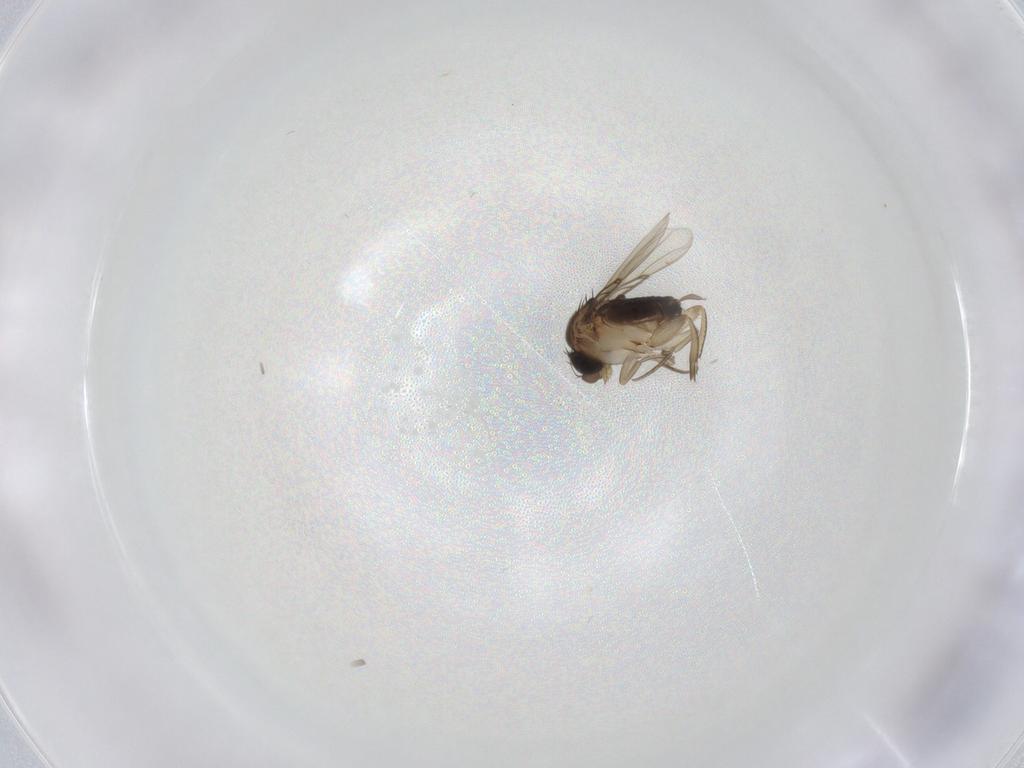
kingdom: Animalia
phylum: Arthropoda
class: Insecta
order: Diptera
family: Phoridae
